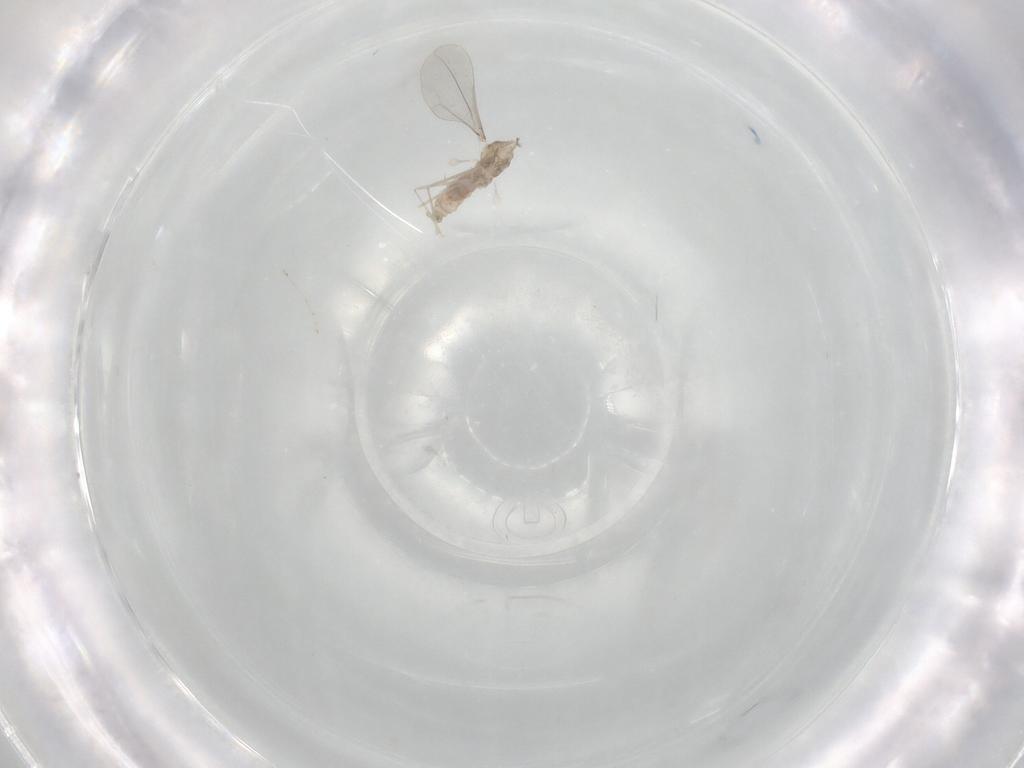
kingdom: Animalia
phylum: Arthropoda
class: Insecta
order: Diptera
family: Cecidomyiidae
